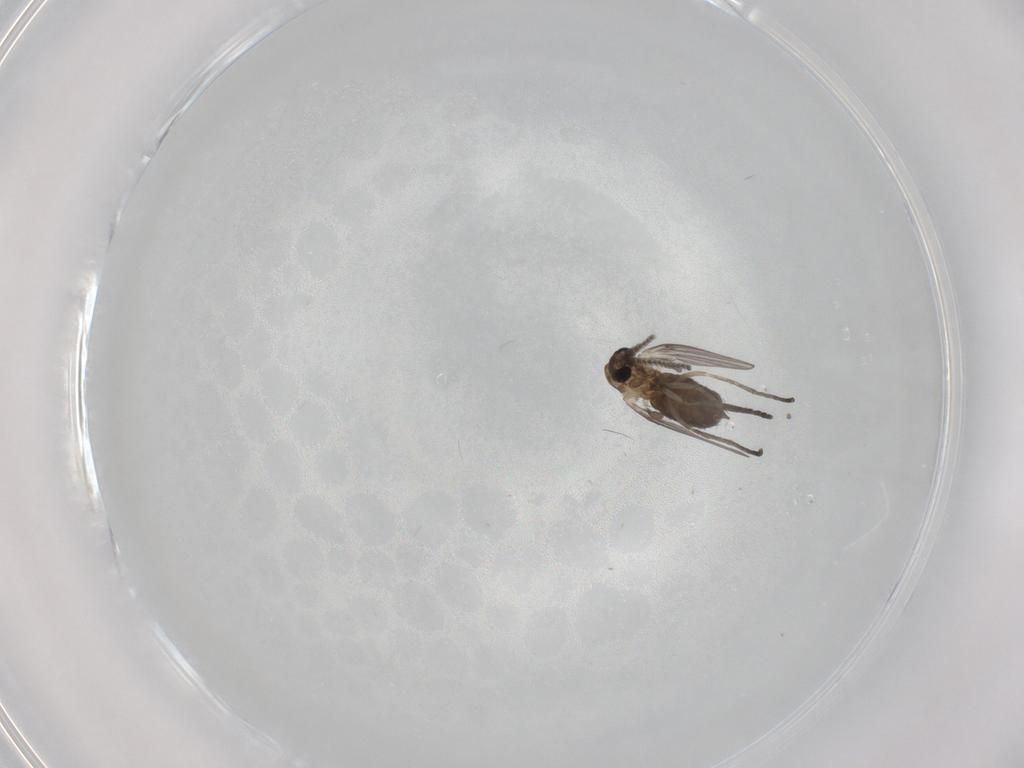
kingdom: Animalia
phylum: Arthropoda
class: Insecta
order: Diptera
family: Psychodidae
